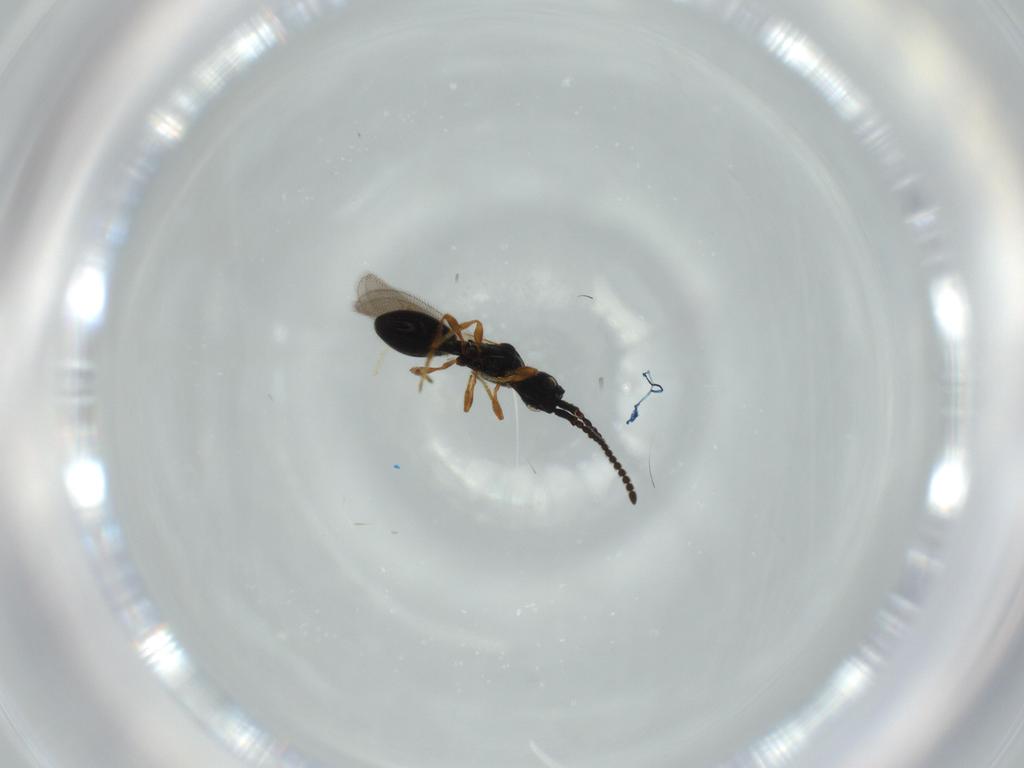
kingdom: Animalia
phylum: Arthropoda
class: Insecta
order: Hymenoptera
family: Diapriidae
